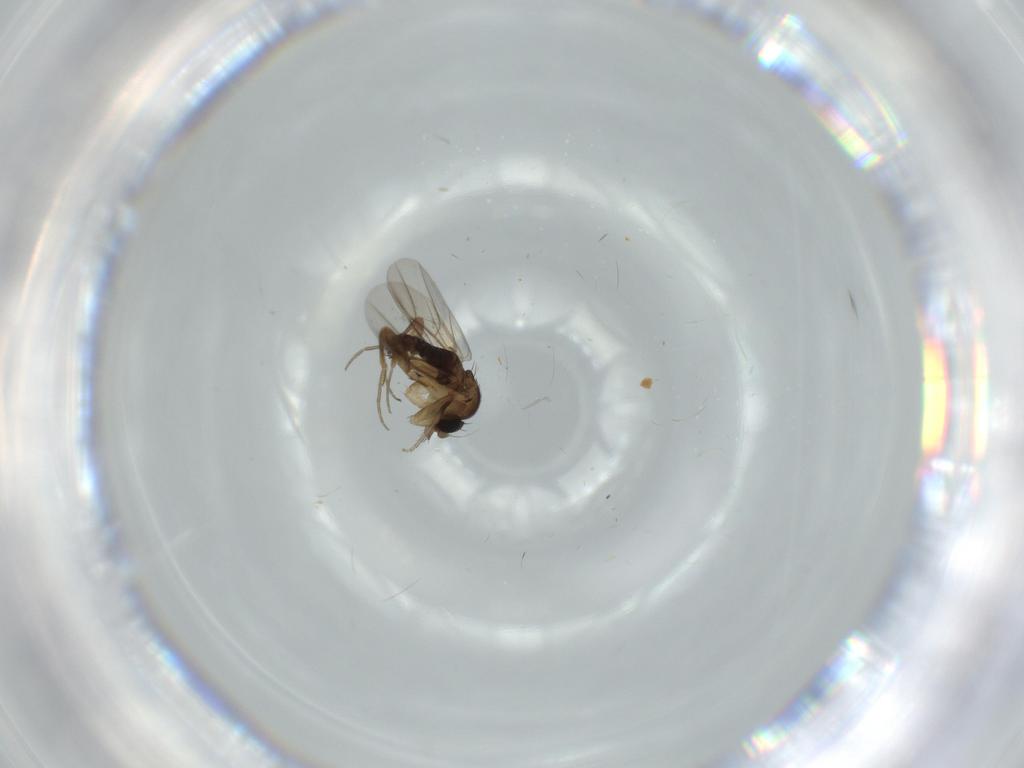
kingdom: Animalia
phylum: Arthropoda
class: Insecta
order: Diptera
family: Phoridae
